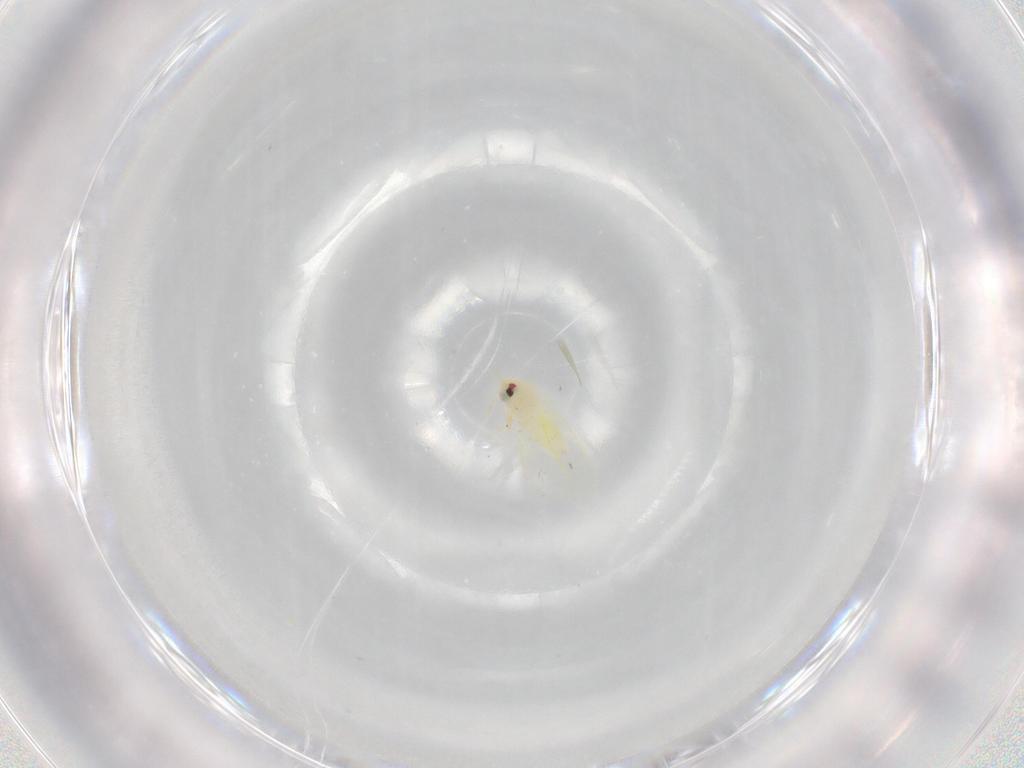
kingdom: Animalia
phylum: Arthropoda
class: Insecta
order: Hemiptera
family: Aleyrodidae
